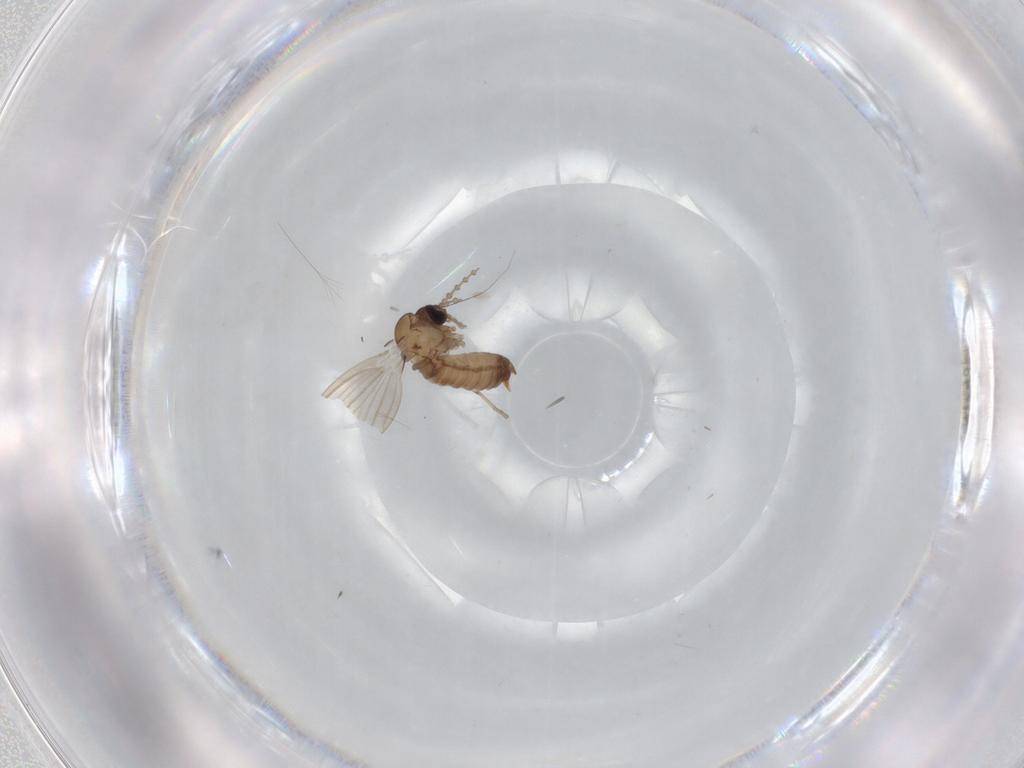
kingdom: Animalia
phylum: Arthropoda
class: Insecta
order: Diptera
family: Psychodidae
